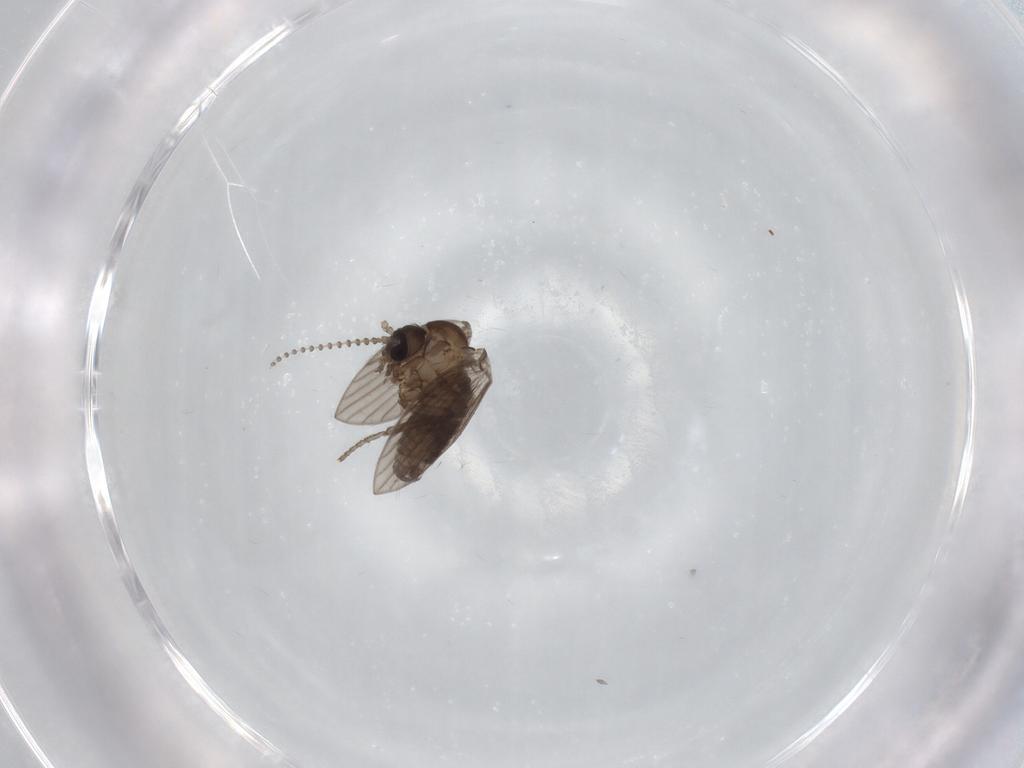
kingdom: Animalia
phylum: Arthropoda
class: Insecta
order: Diptera
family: Psychodidae
